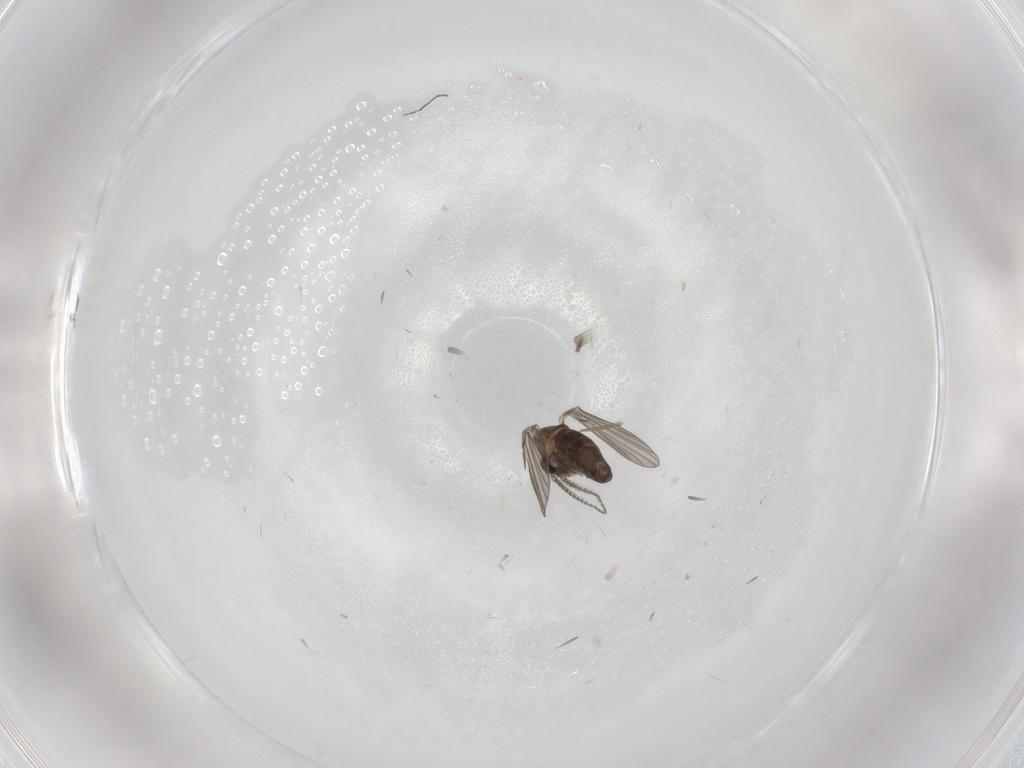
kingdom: Animalia
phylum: Arthropoda
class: Insecta
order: Diptera
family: Phoridae
